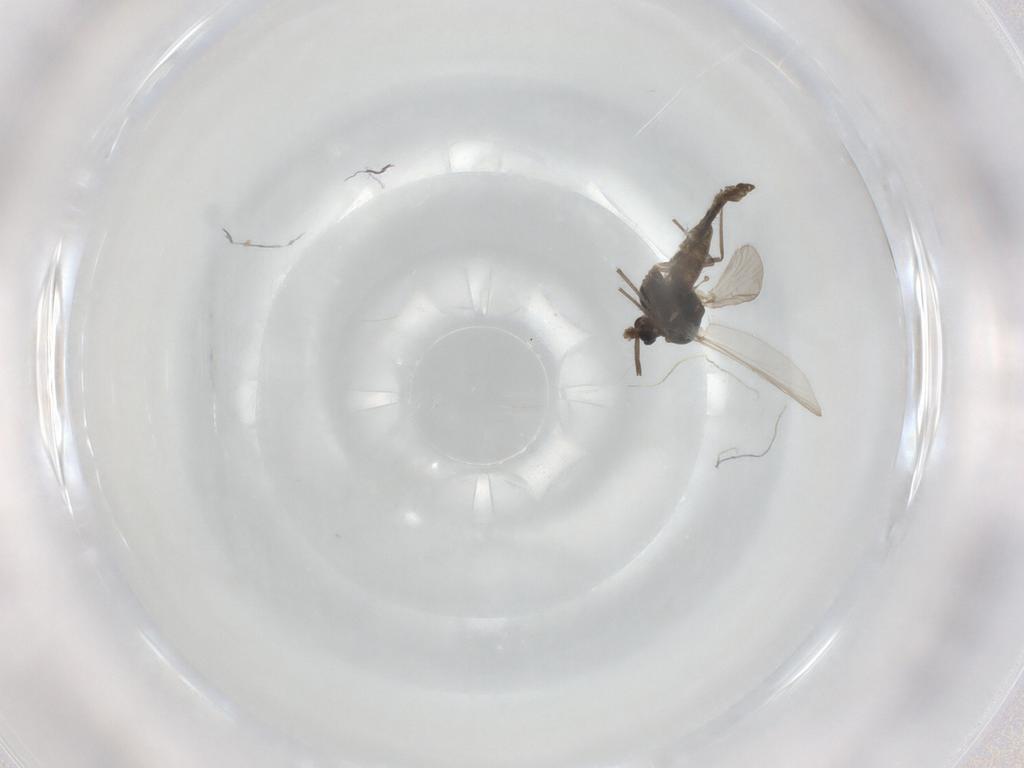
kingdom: Animalia
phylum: Arthropoda
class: Insecta
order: Diptera
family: Chironomidae
